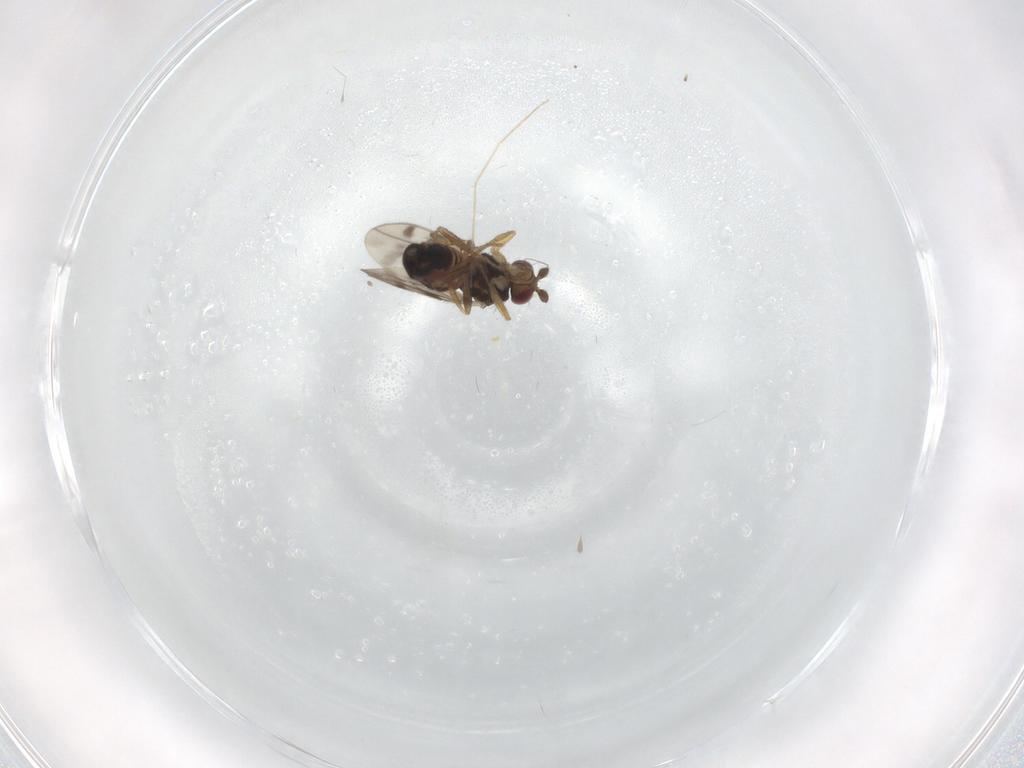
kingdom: Animalia
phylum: Arthropoda
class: Insecta
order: Diptera
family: Sphaeroceridae
